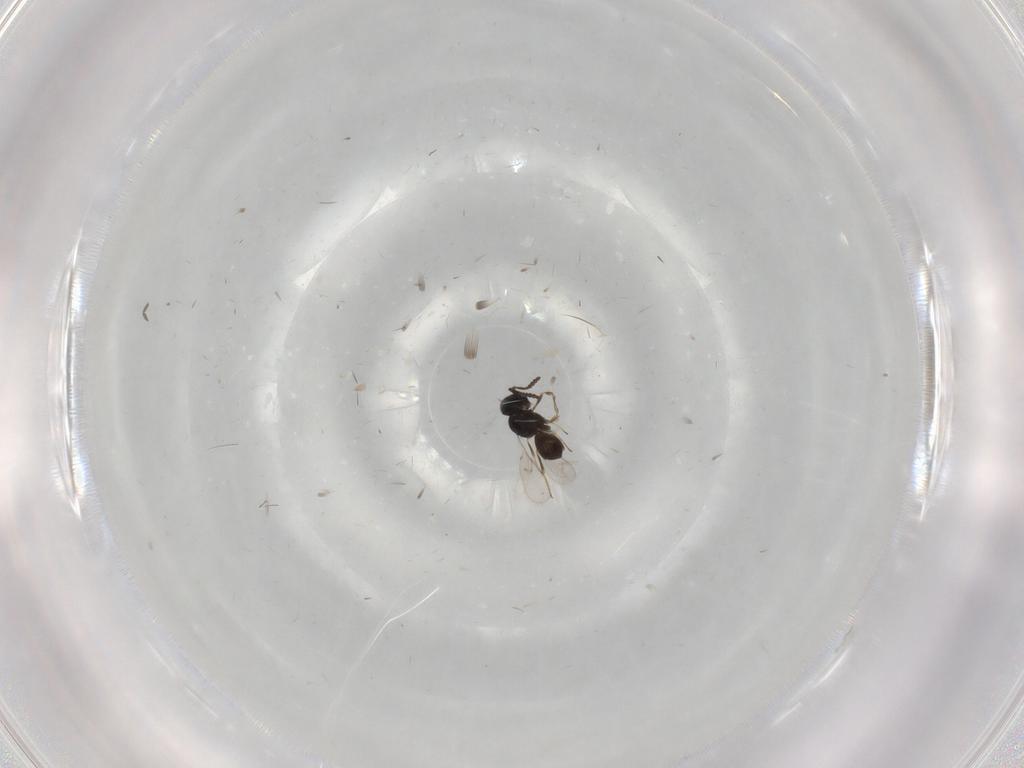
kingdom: Animalia
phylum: Arthropoda
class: Insecta
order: Hymenoptera
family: Scelionidae
